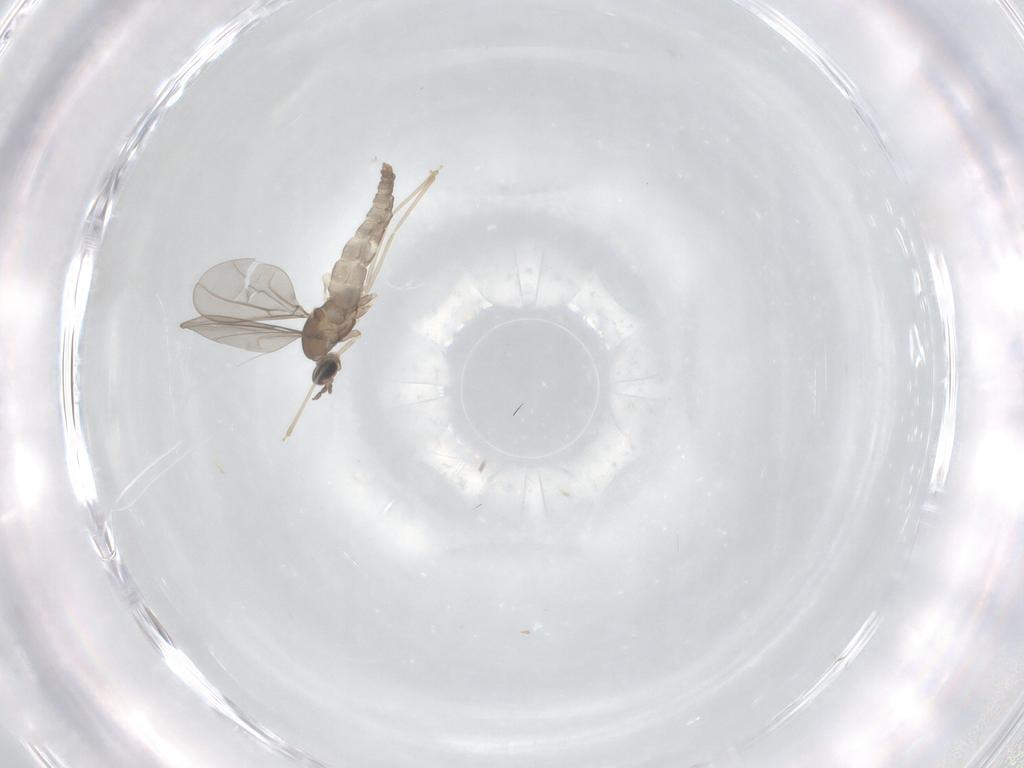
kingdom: Animalia
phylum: Arthropoda
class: Insecta
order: Diptera
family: Cecidomyiidae
